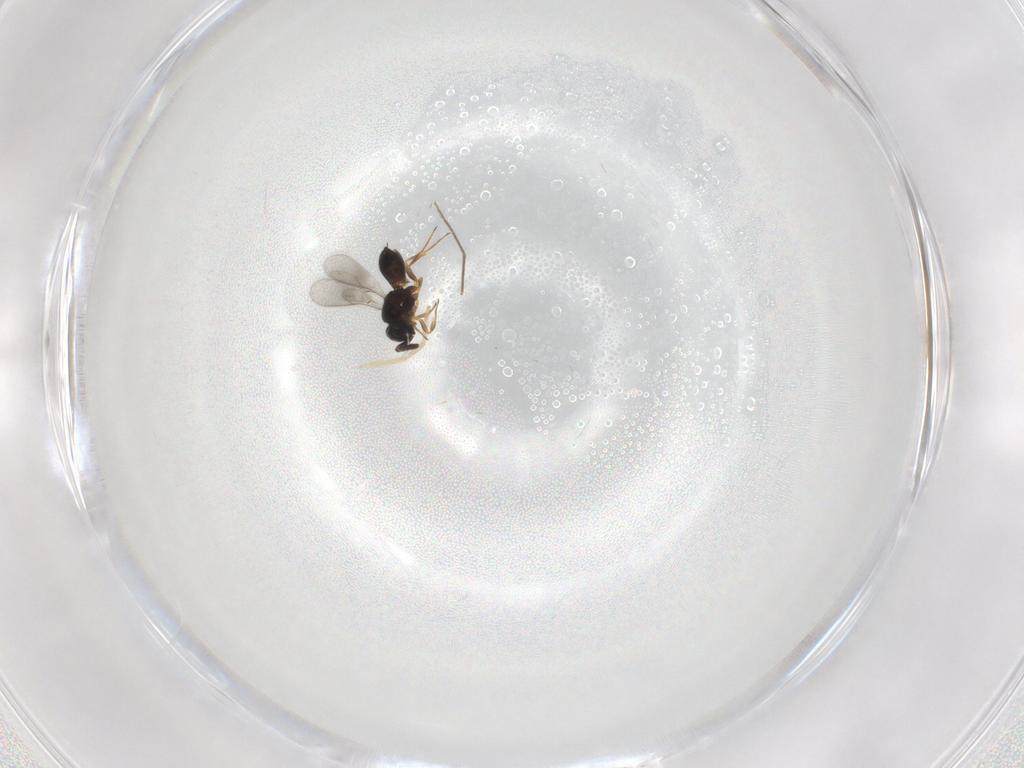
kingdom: Animalia
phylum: Arthropoda
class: Insecta
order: Hymenoptera
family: Scelionidae
